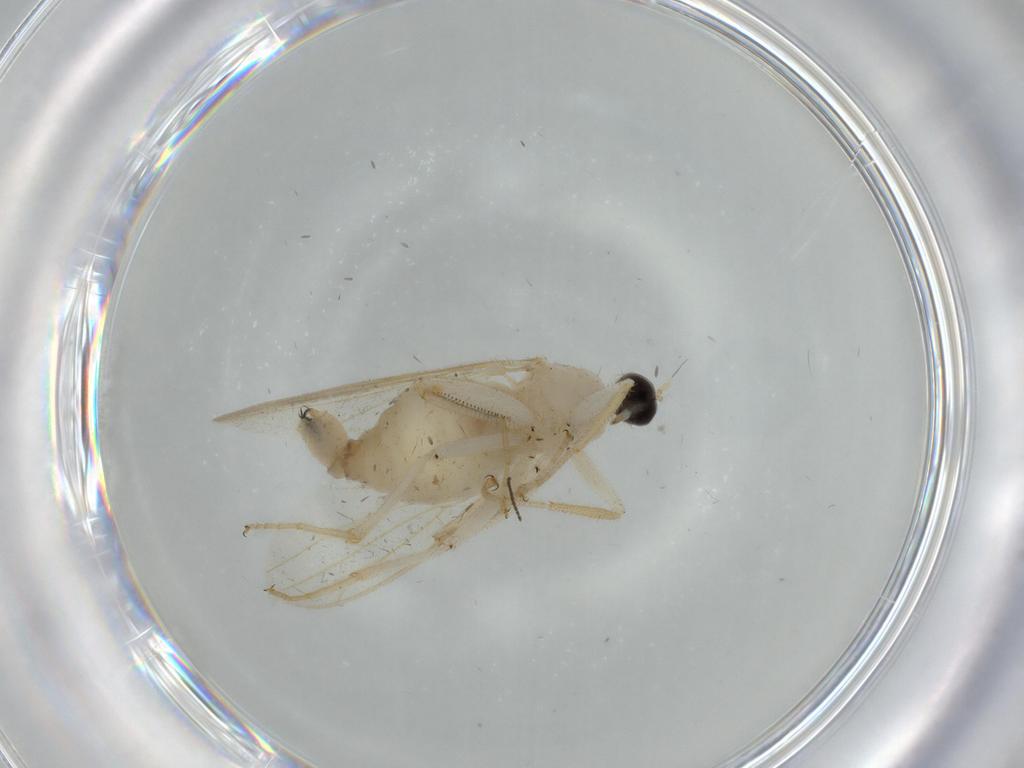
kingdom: Animalia
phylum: Arthropoda
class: Insecta
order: Diptera
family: Hybotidae
